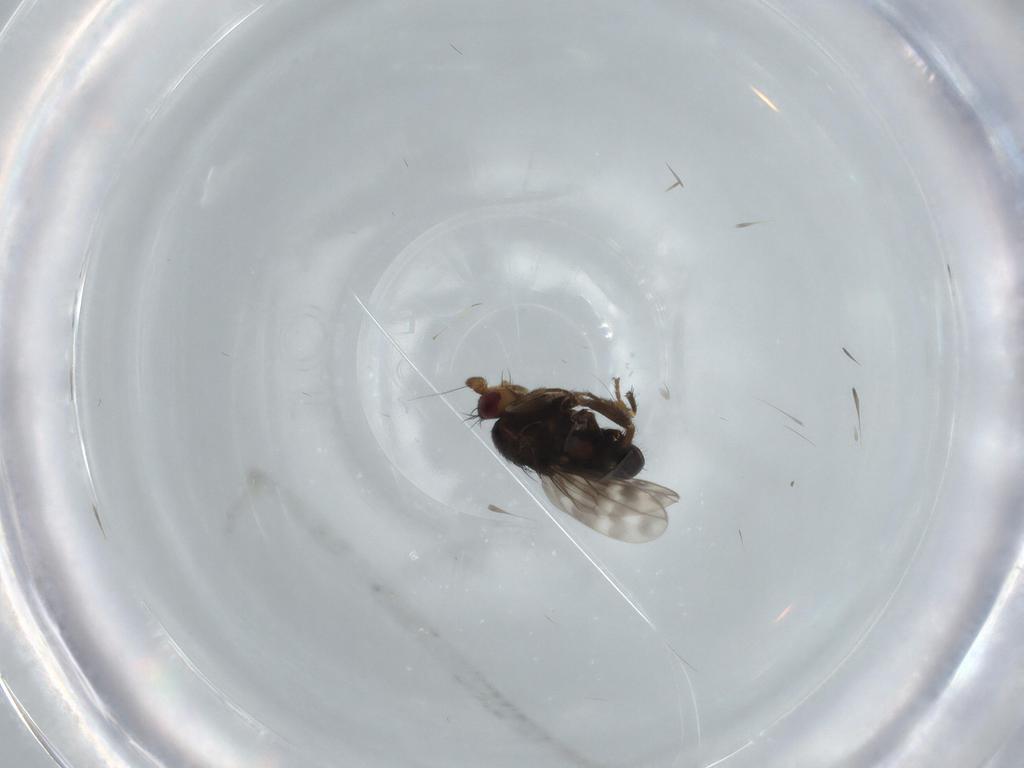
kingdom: Animalia
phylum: Arthropoda
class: Insecta
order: Diptera
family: Sphaeroceridae
